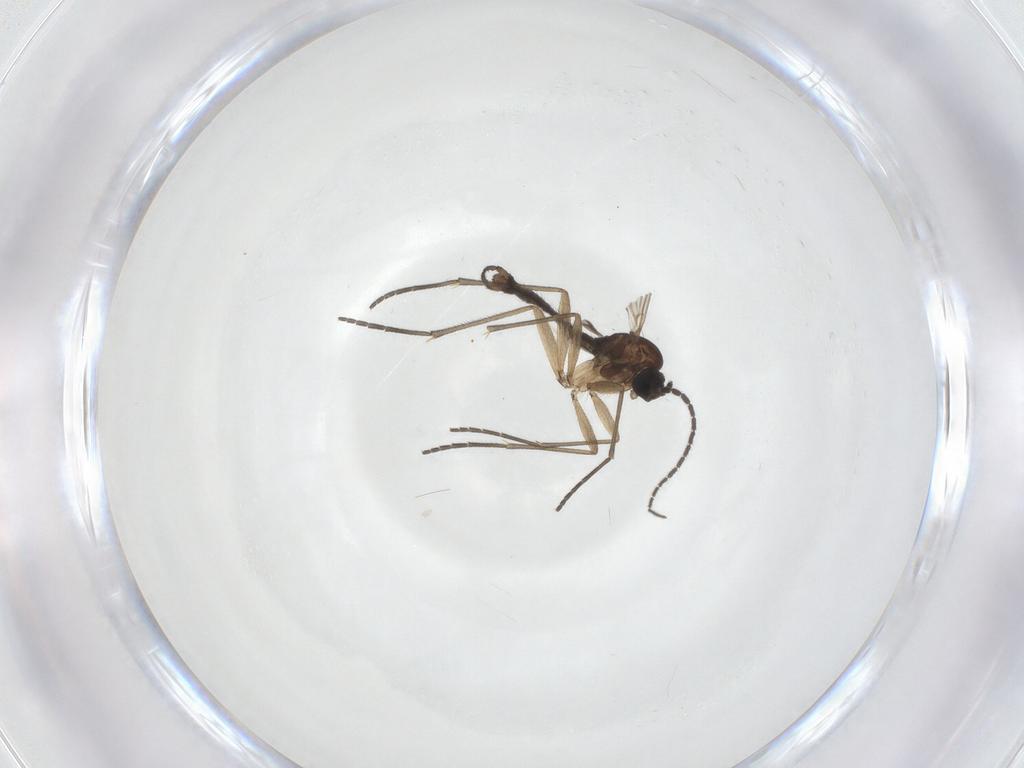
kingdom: Animalia
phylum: Arthropoda
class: Insecta
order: Diptera
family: Sciaridae
